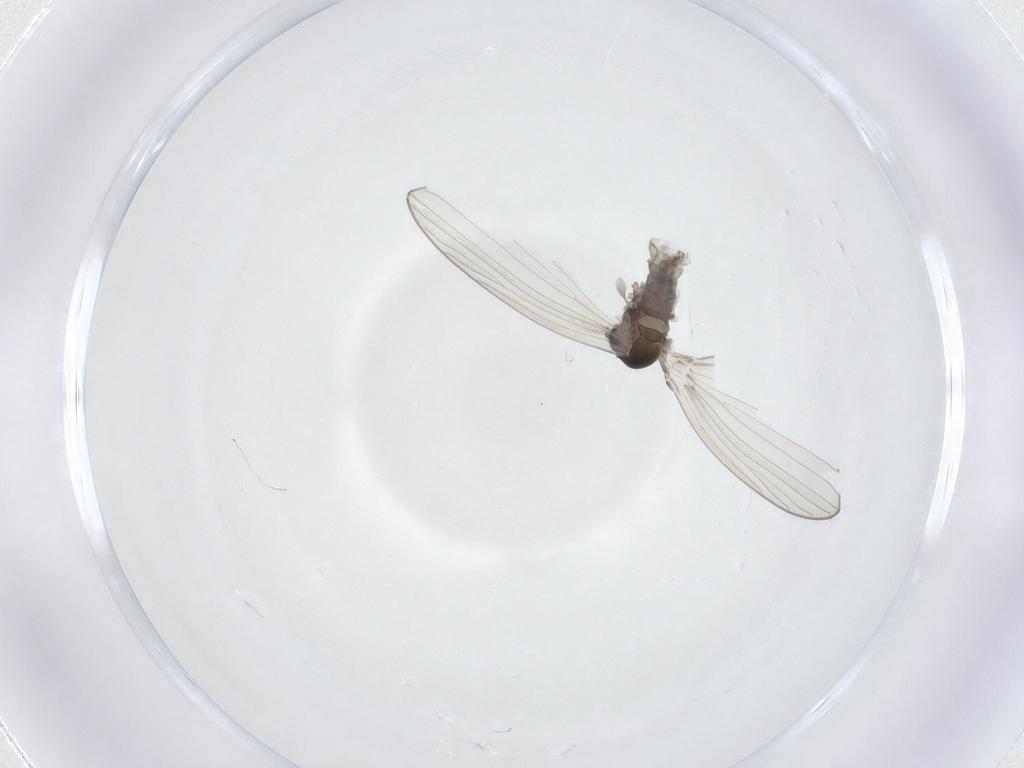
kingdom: Animalia
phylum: Arthropoda
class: Insecta
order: Diptera
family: Psychodidae
